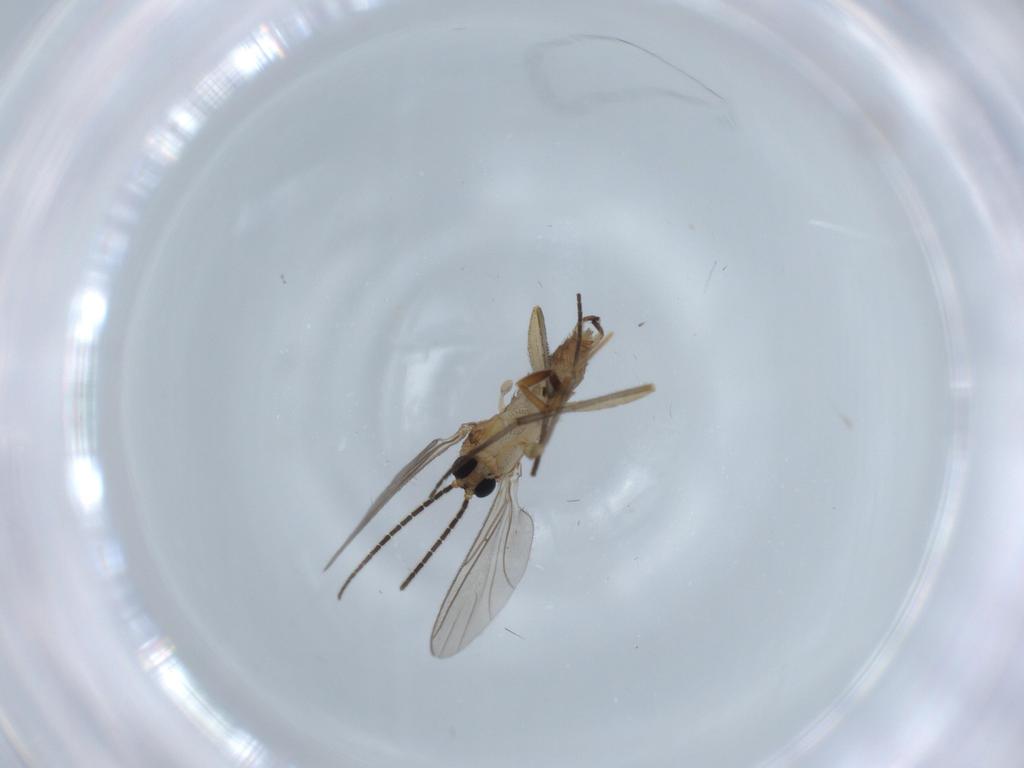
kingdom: Animalia
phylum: Arthropoda
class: Insecta
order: Diptera
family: Sciaridae
